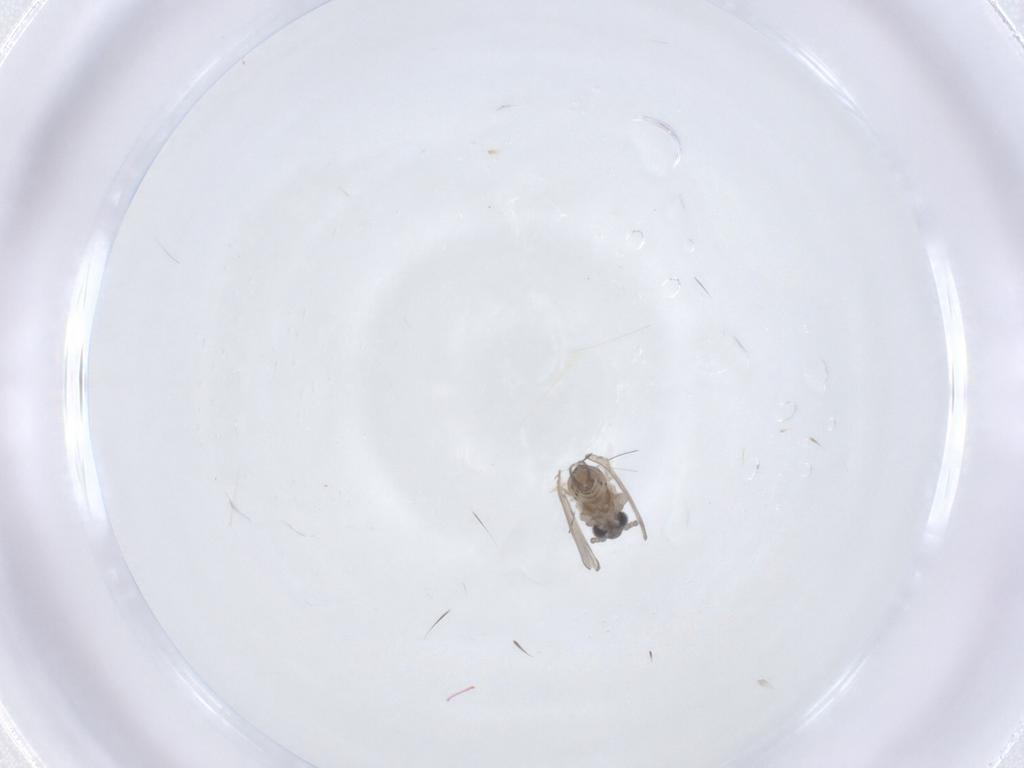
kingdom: Animalia
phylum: Arthropoda
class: Insecta
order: Diptera
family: Psychodidae
